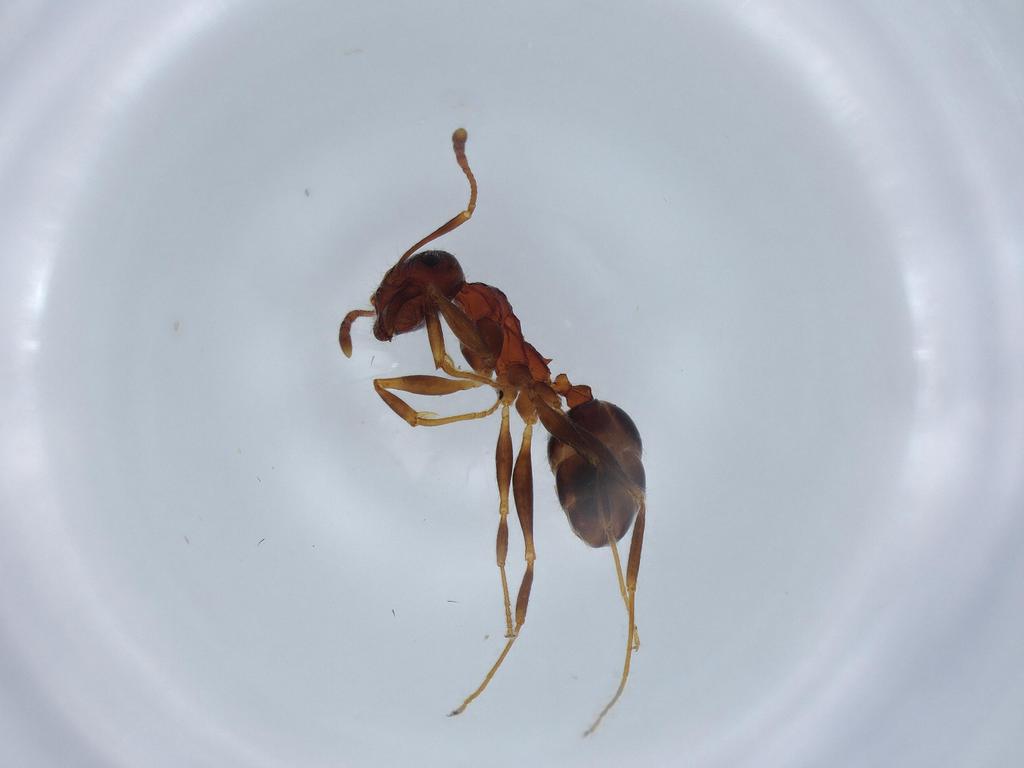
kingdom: Animalia
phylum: Arthropoda
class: Insecta
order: Hymenoptera
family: Formicidae
